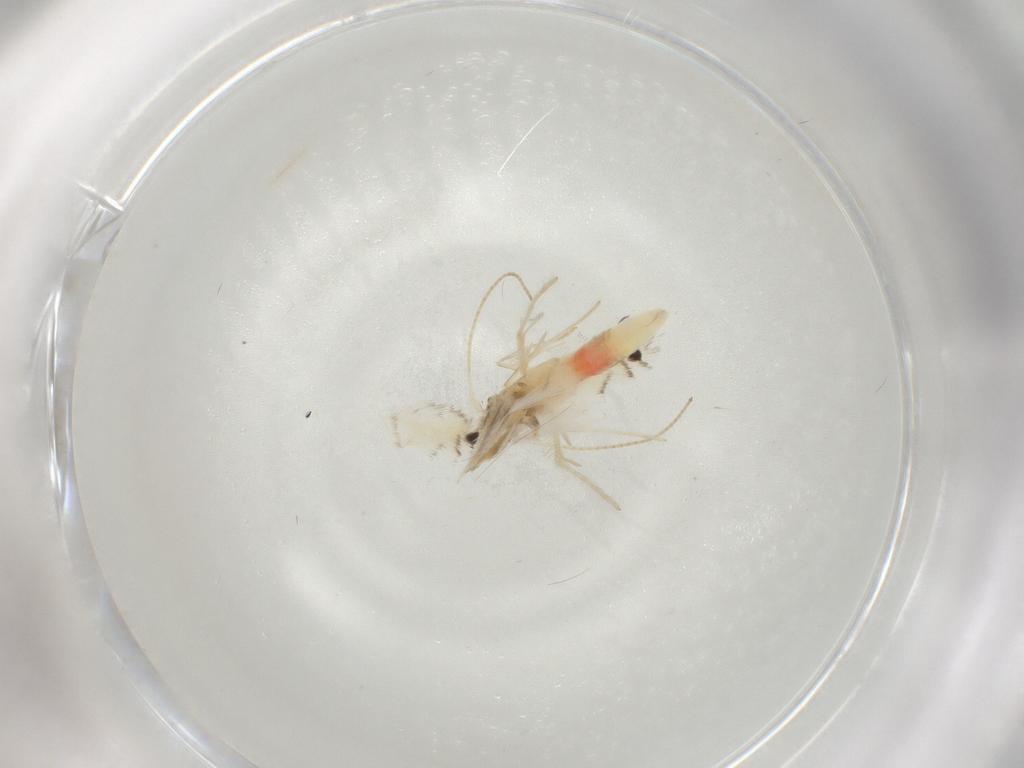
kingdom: Animalia
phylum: Arthropoda
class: Insecta
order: Lepidoptera
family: Gracillariidae
